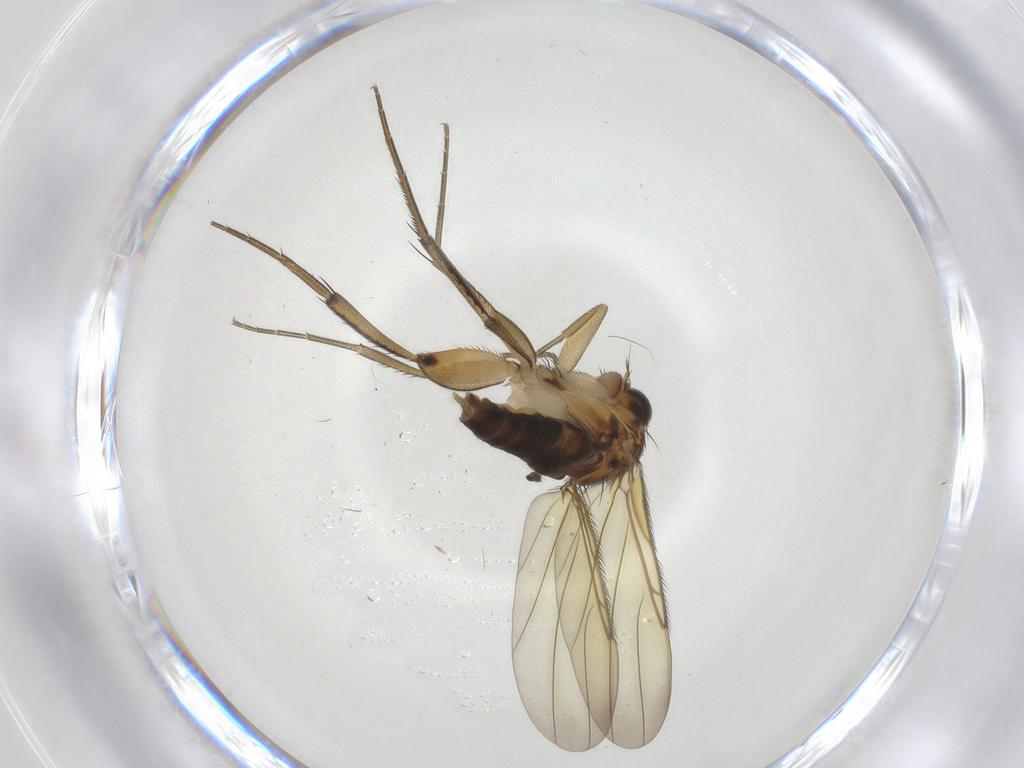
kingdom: Animalia
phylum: Arthropoda
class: Insecta
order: Diptera
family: Phoridae
